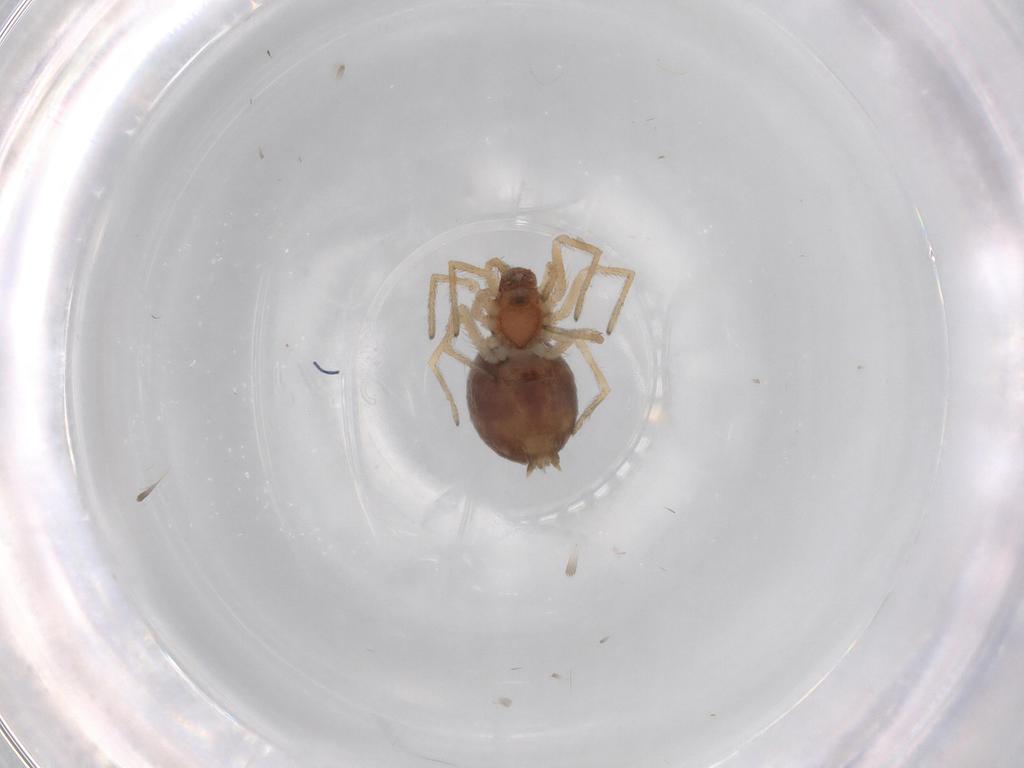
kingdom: Animalia
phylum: Arthropoda
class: Arachnida
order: Araneae
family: Dictynidae
